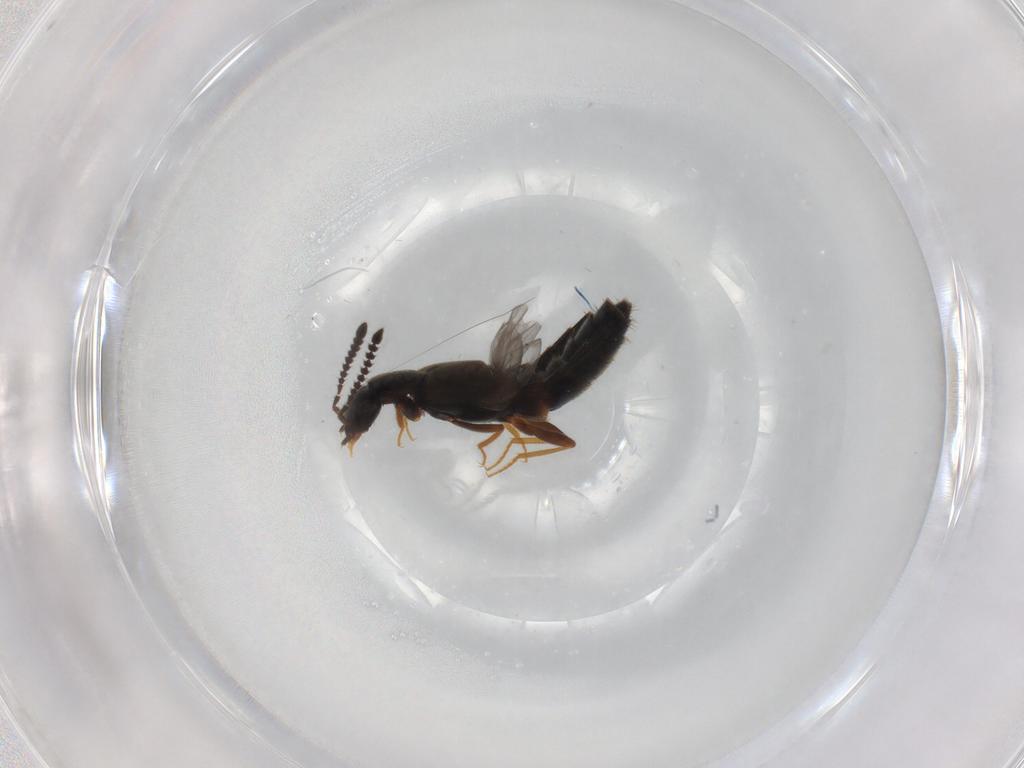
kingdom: Animalia
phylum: Arthropoda
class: Insecta
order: Coleoptera
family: Staphylinidae
